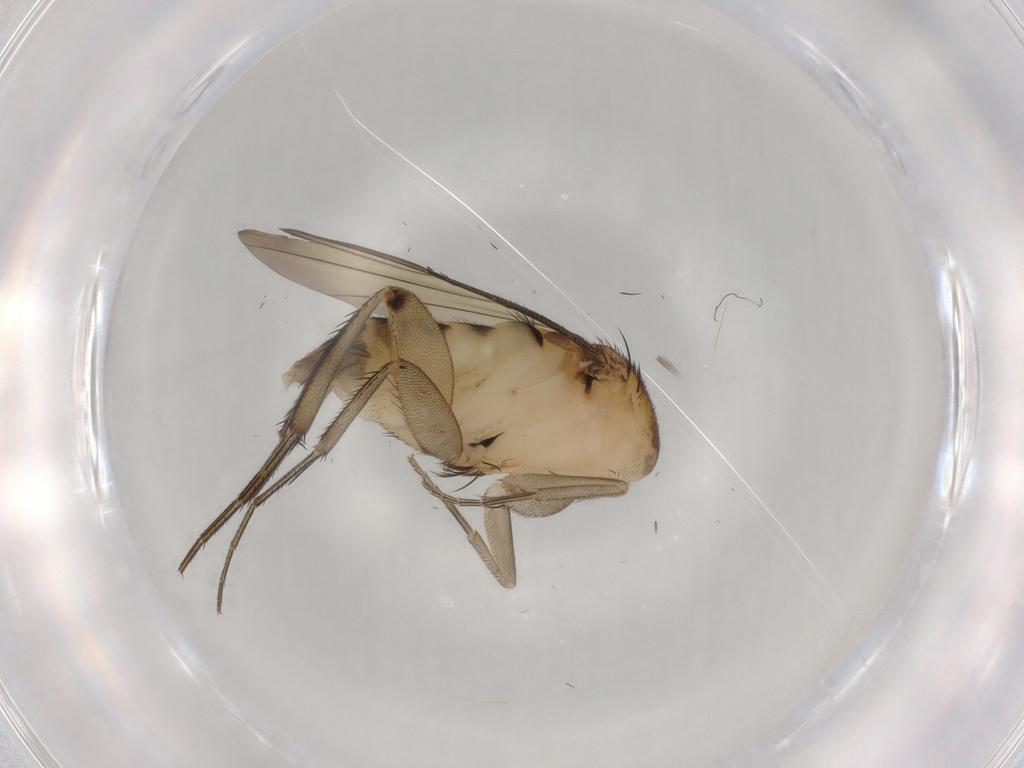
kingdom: Animalia
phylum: Arthropoda
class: Insecta
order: Diptera
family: Phoridae
